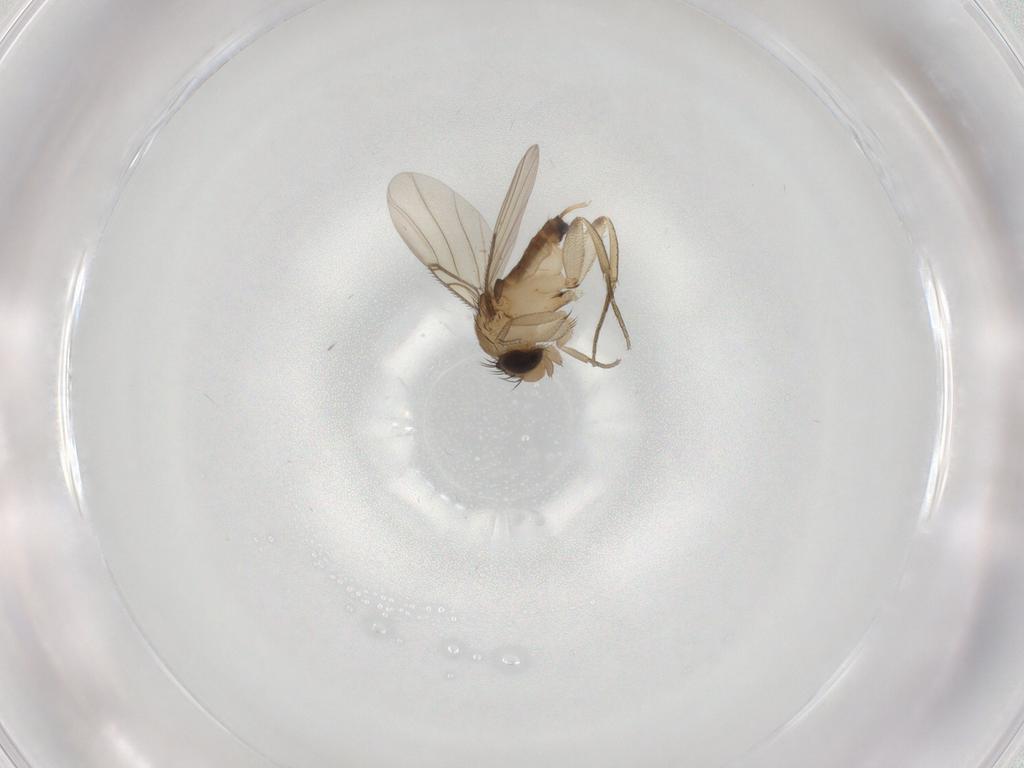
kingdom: Animalia
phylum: Arthropoda
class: Insecta
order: Diptera
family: Phoridae
